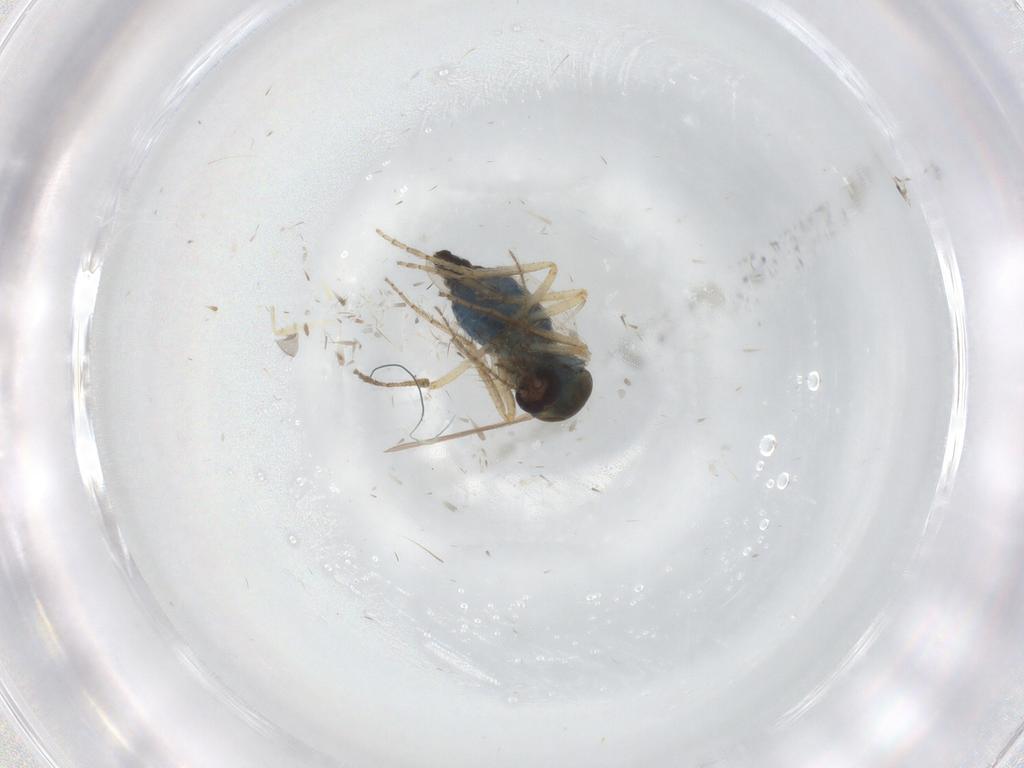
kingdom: Animalia
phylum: Arthropoda
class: Insecta
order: Diptera
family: Ceratopogonidae
